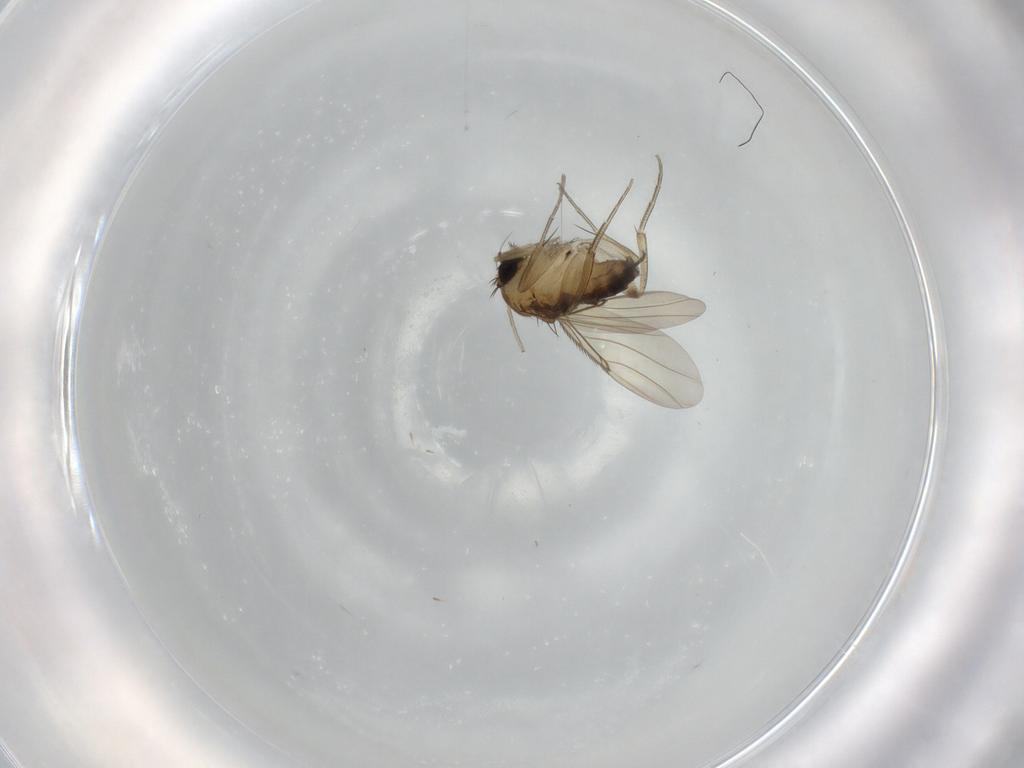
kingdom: Animalia
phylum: Arthropoda
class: Insecta
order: Diptera
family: Phoridae
